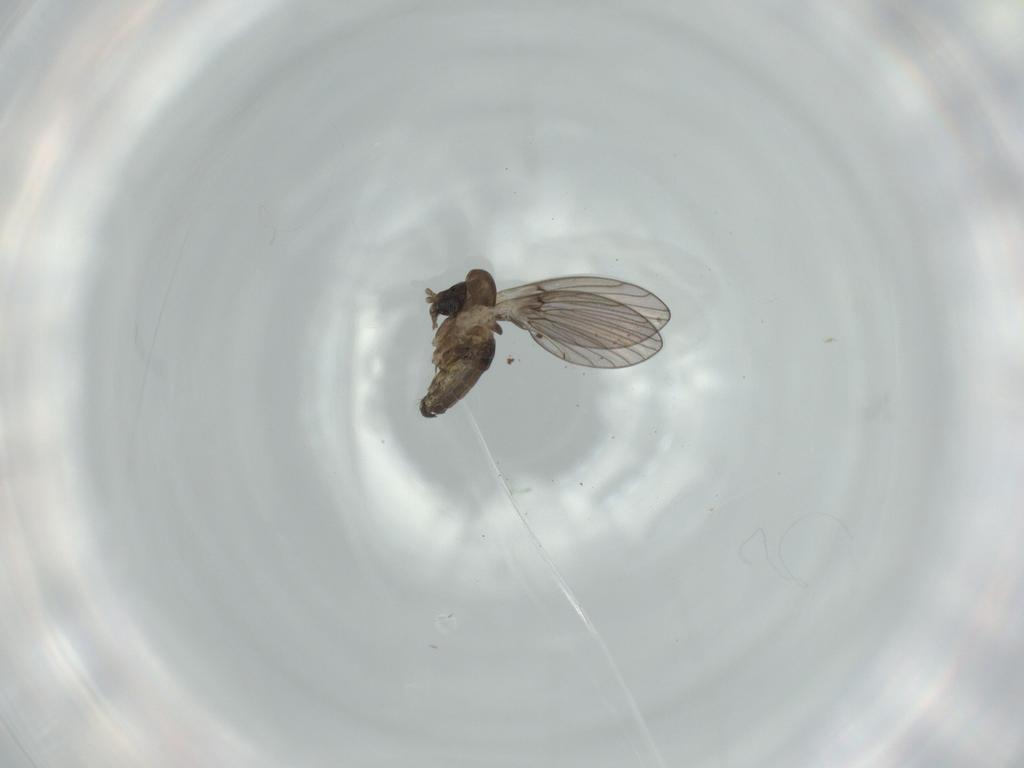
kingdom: Animalia
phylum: Arthropoda
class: Insecta
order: Diptera
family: Psychodidae
